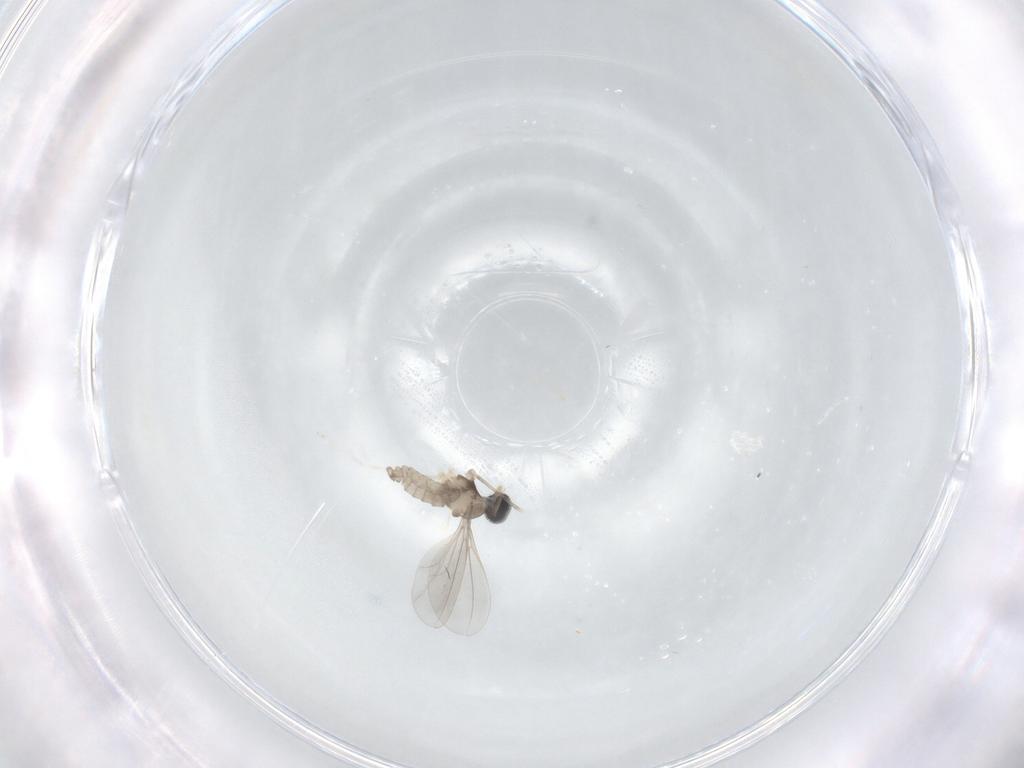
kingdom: Animalia
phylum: Arthropoda
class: Insecta
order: Diptera
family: Cecidomyiidae
